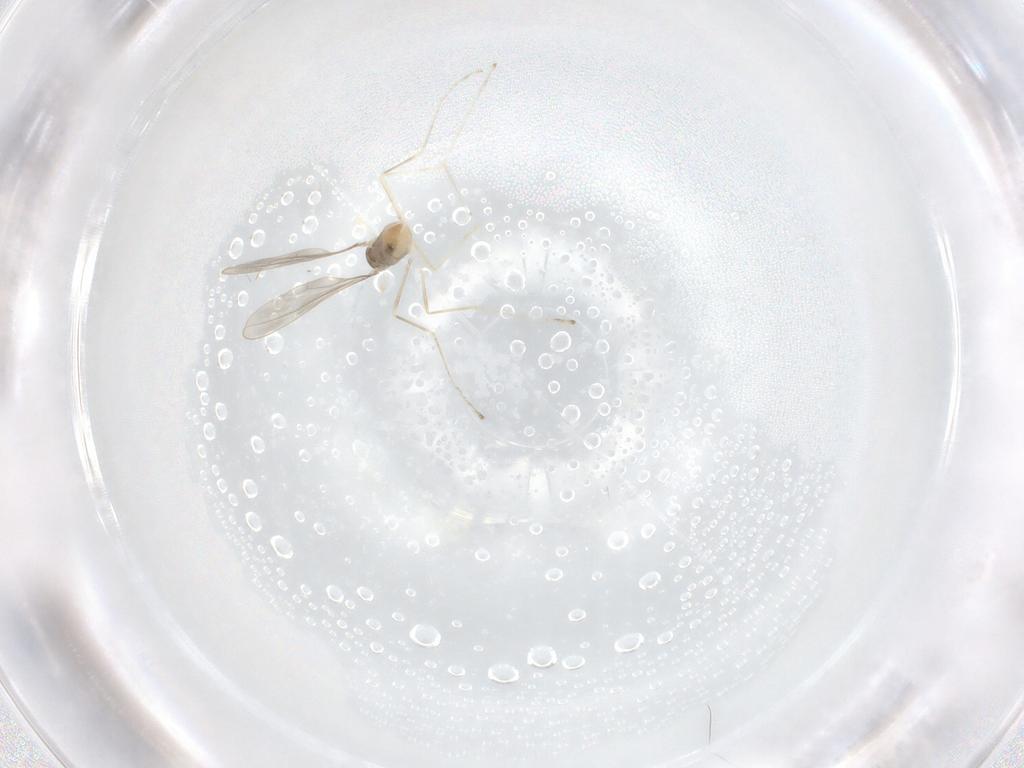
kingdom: Animalia
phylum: Arthropoda
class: Insecta
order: Diptera
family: Cecidomyiidae
